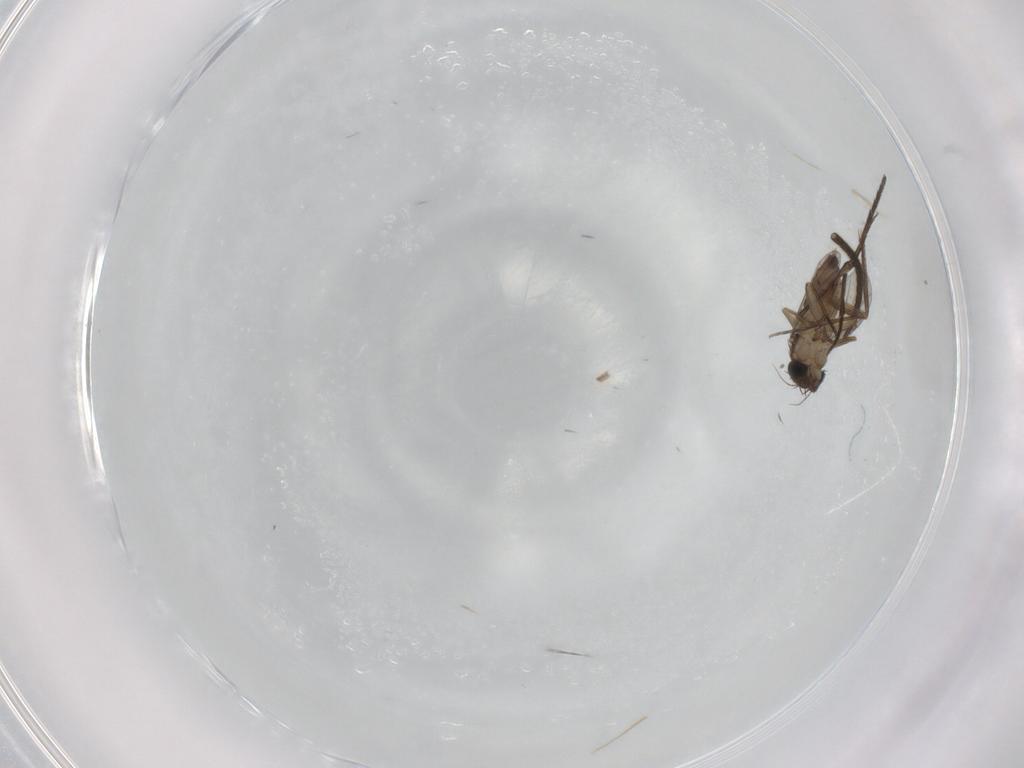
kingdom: Animalia
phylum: Arthropoda
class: Insecta
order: Diptera
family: Phoridae
